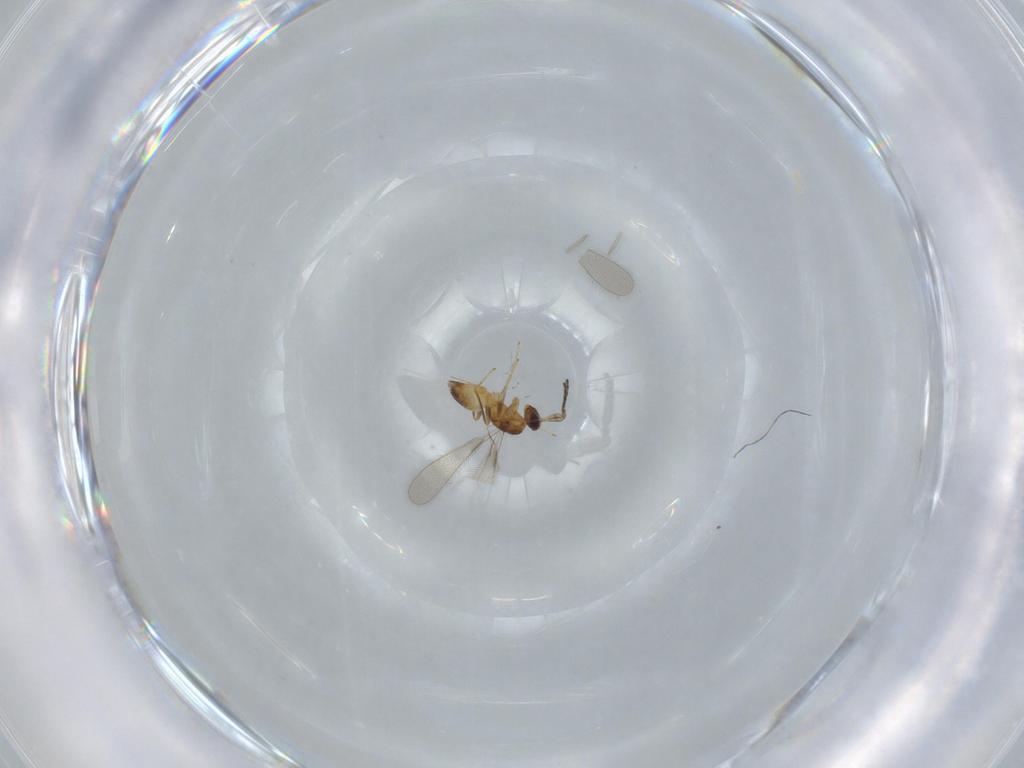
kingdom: Animalia
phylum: Arthropoda
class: Insecta
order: Hymenoptera
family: Mymaridae
